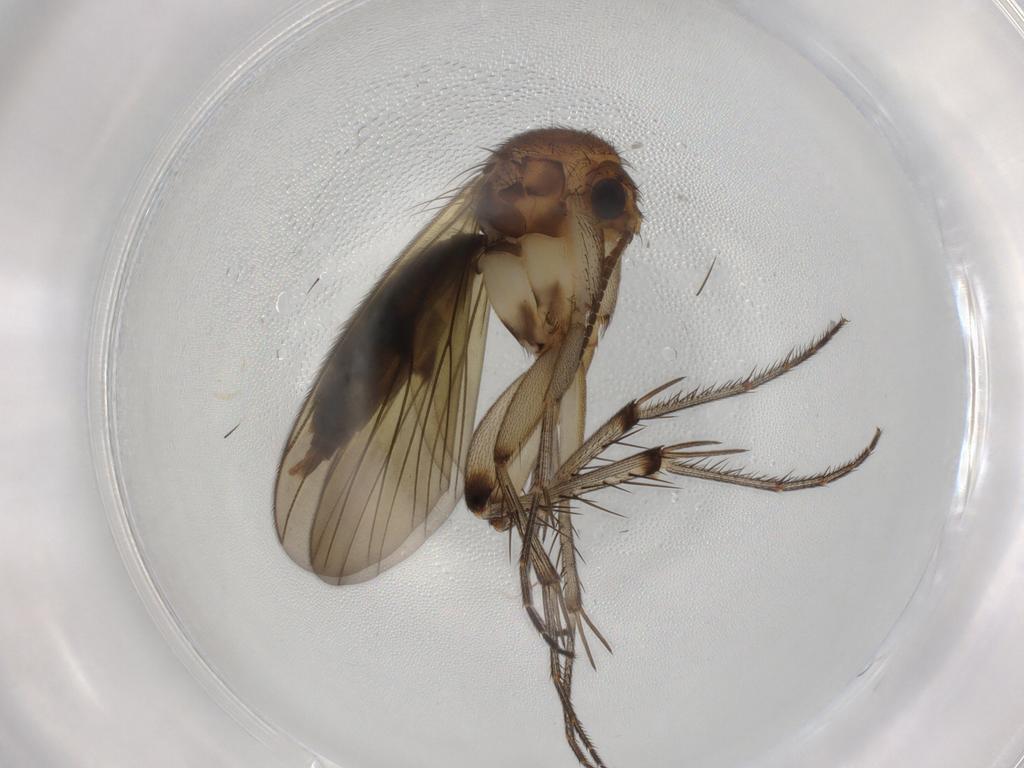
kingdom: Animalia
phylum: Arthropoda
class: Insecta
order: Diptera
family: Mycetophilidae
